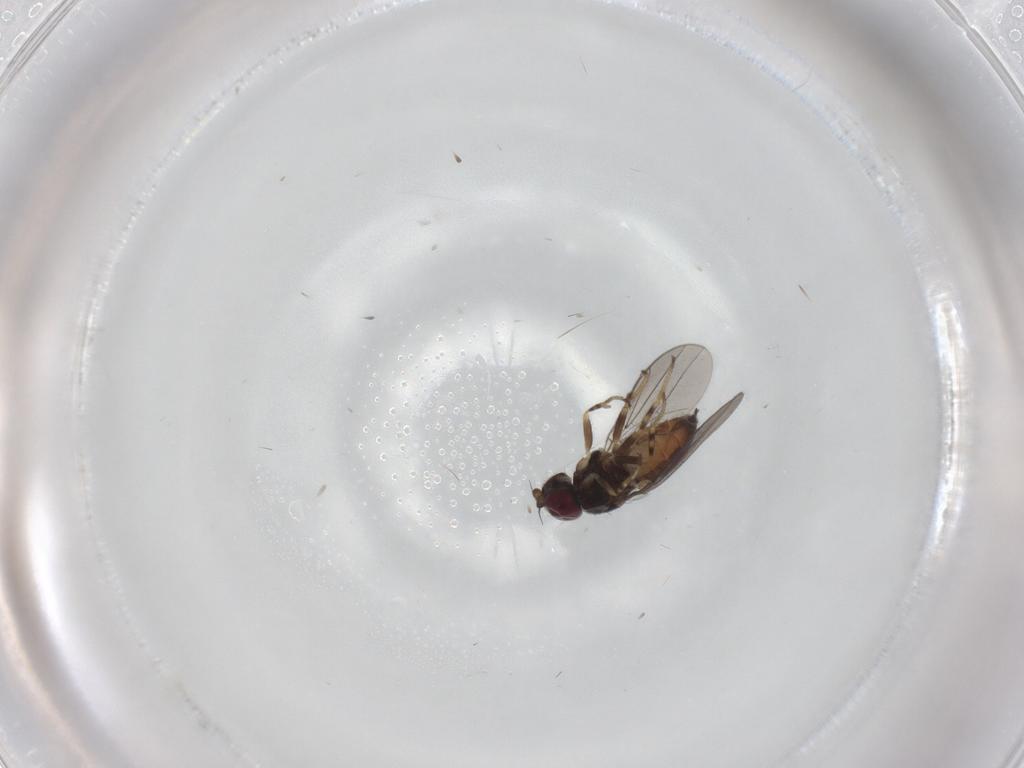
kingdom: Animalia
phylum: Arthropoda
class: Insecta
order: Diptera
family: Chloropidae
